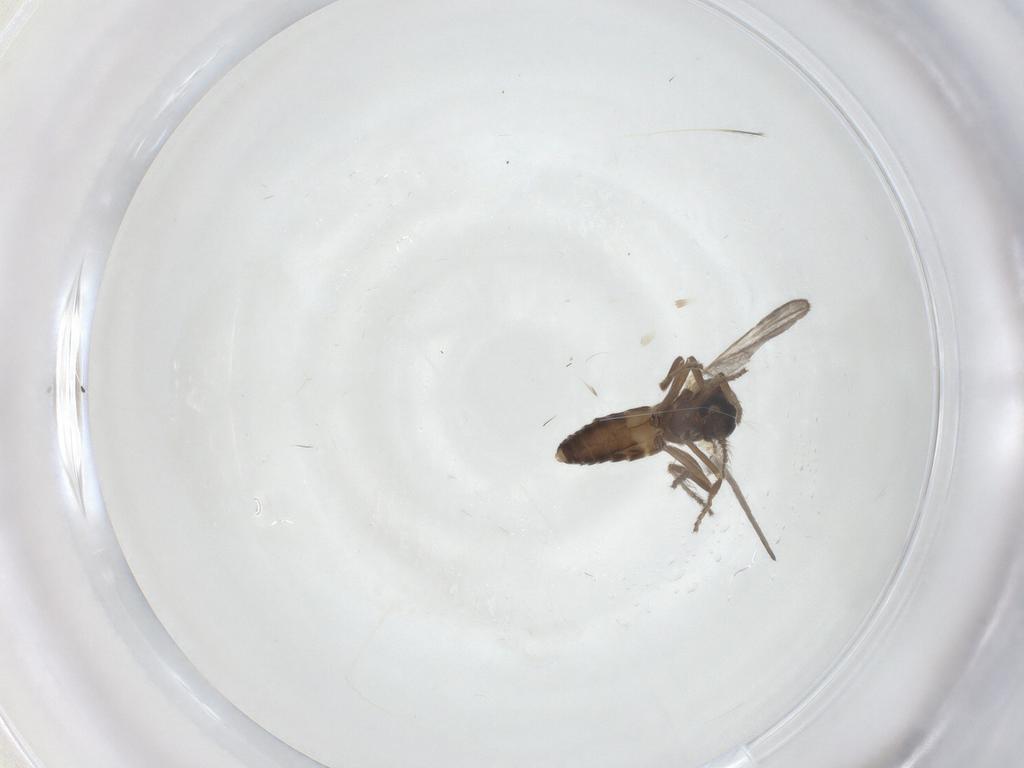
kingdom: Animalia
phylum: Arthropoda
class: Insecta
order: Diptera
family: Ceratopogonidae
